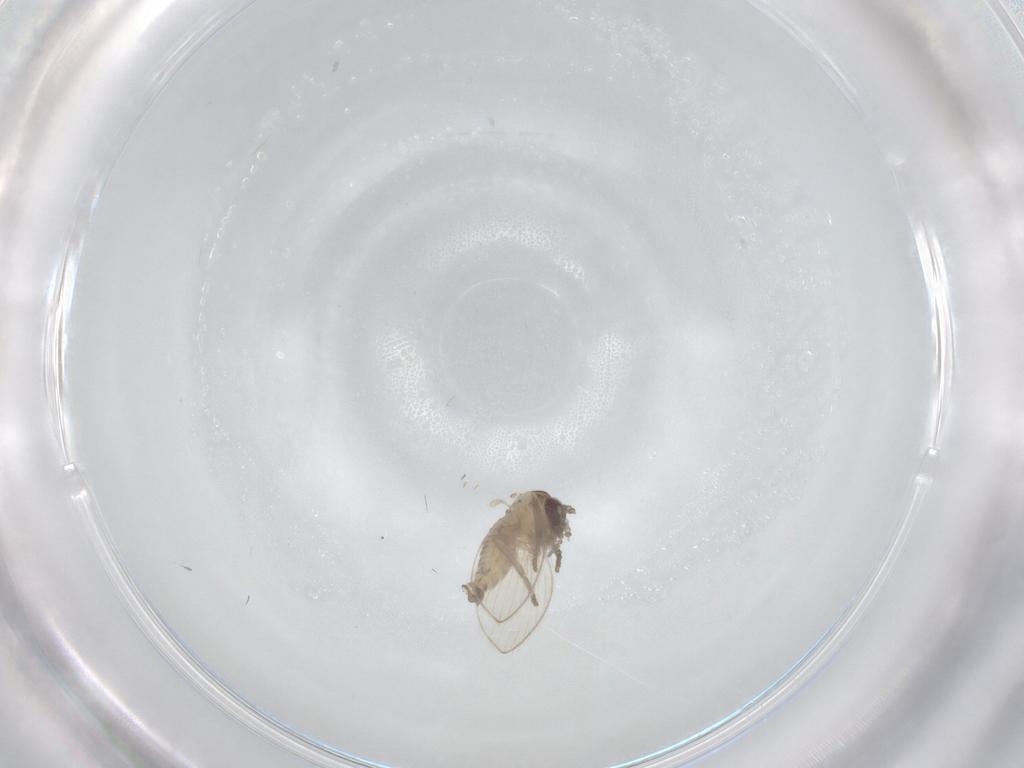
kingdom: Animalia
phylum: Arthropoda
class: Insecta
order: Diptera
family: Psychodidae
